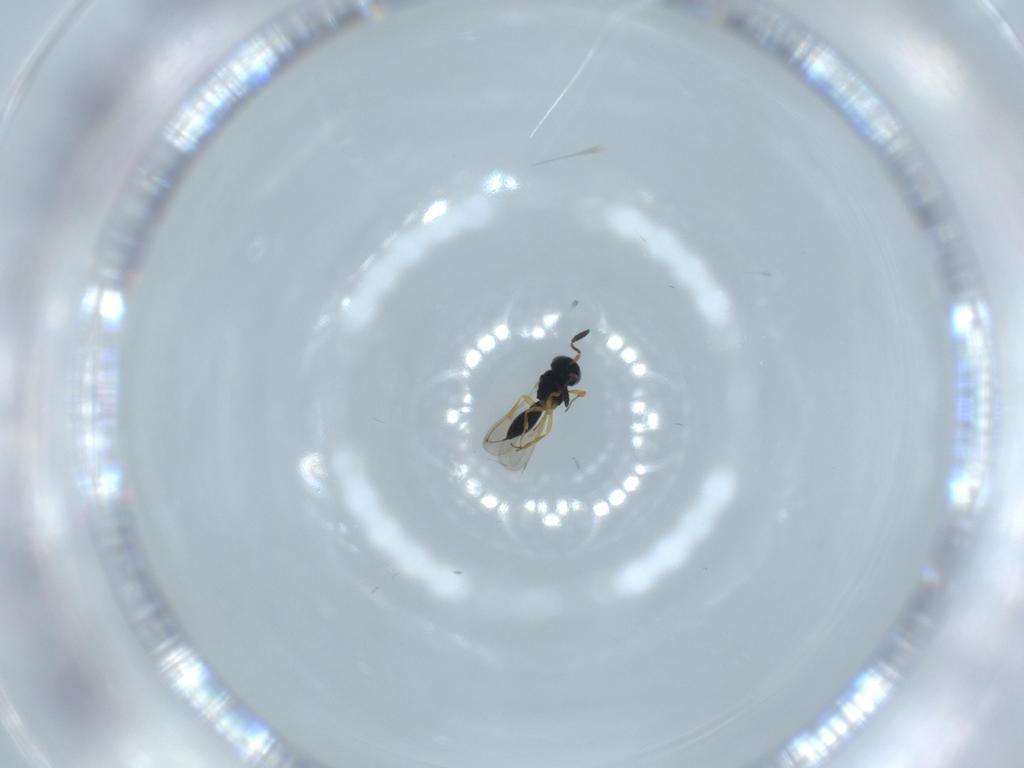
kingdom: Animalia
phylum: Arthropoda
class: Insecta
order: Hymenoptera
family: Scelionidae
